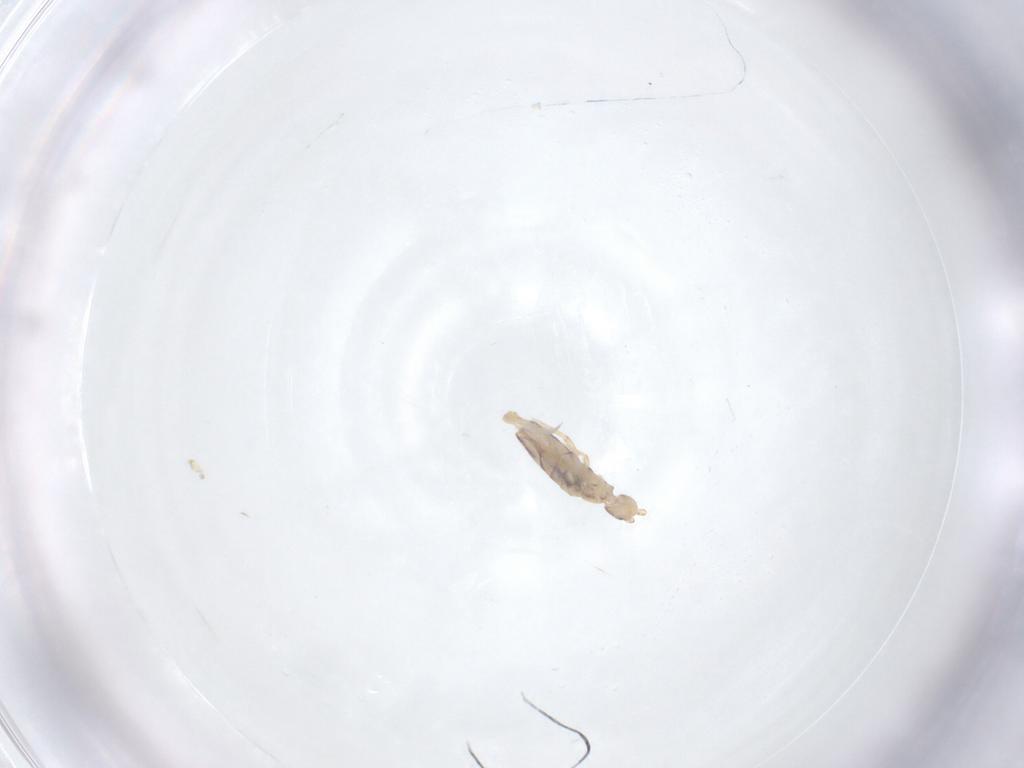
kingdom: Animalia
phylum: Arthropoda
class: Collembola
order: Entomobryomorpha
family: Entomobryidae
